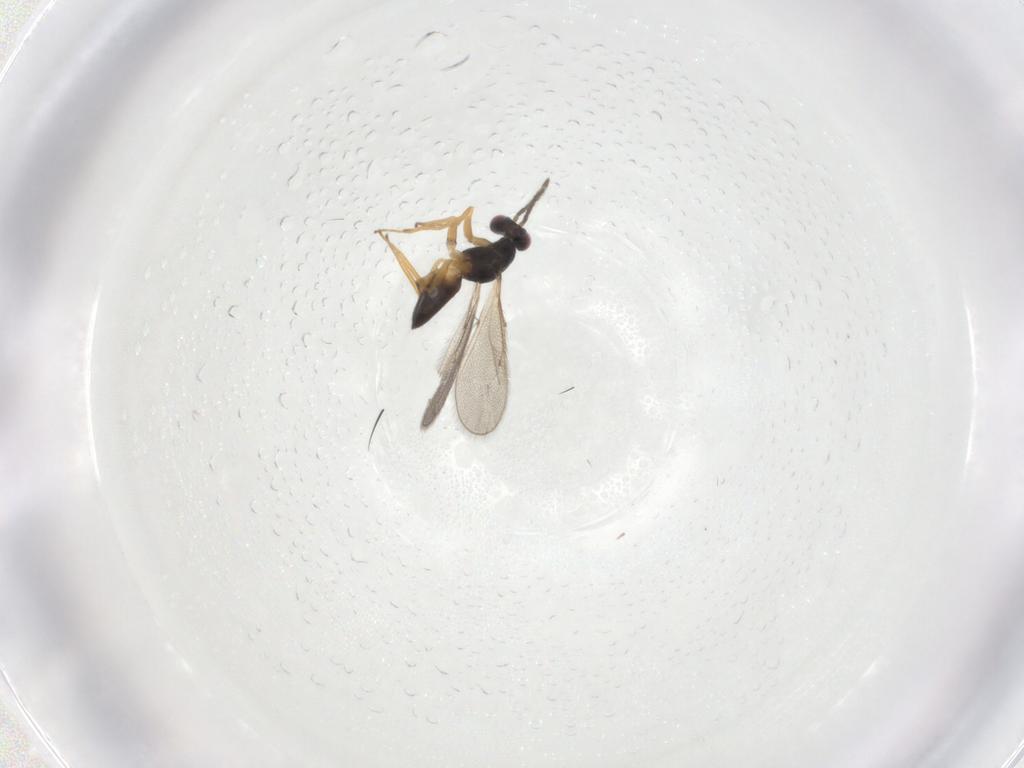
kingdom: Animalia
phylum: Arthropoda
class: Insecta
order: Hymenoptera
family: Eulophidae
